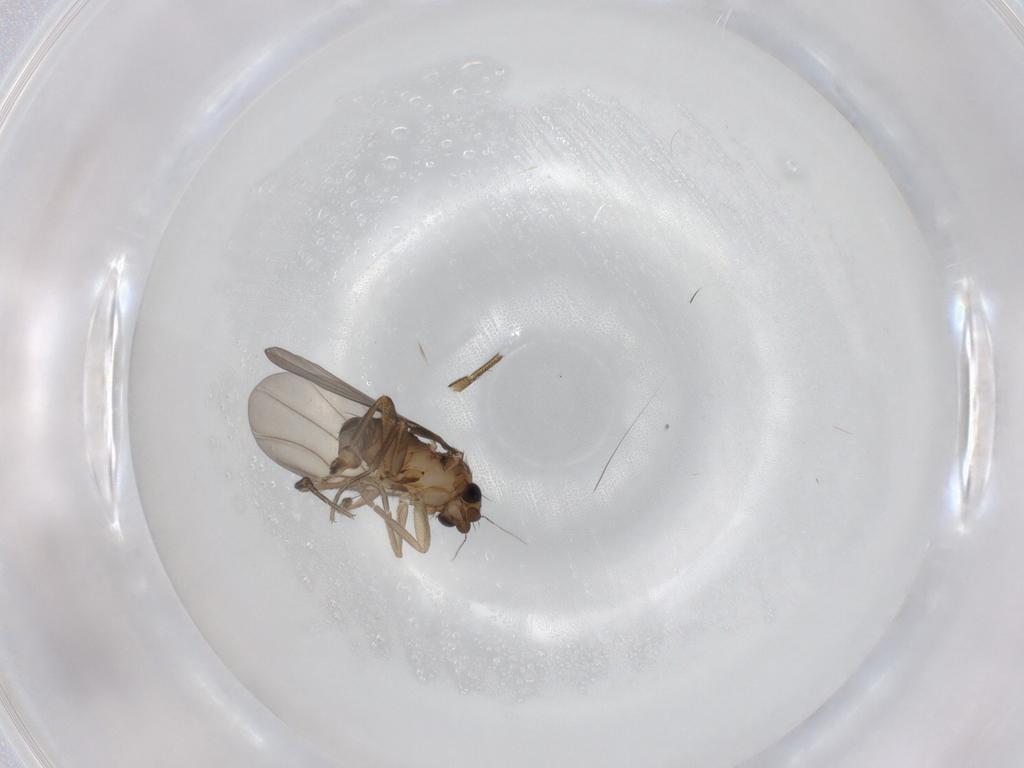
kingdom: Animalia
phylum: Arthropoda
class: Insecta
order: Diptera
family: Phoridae
